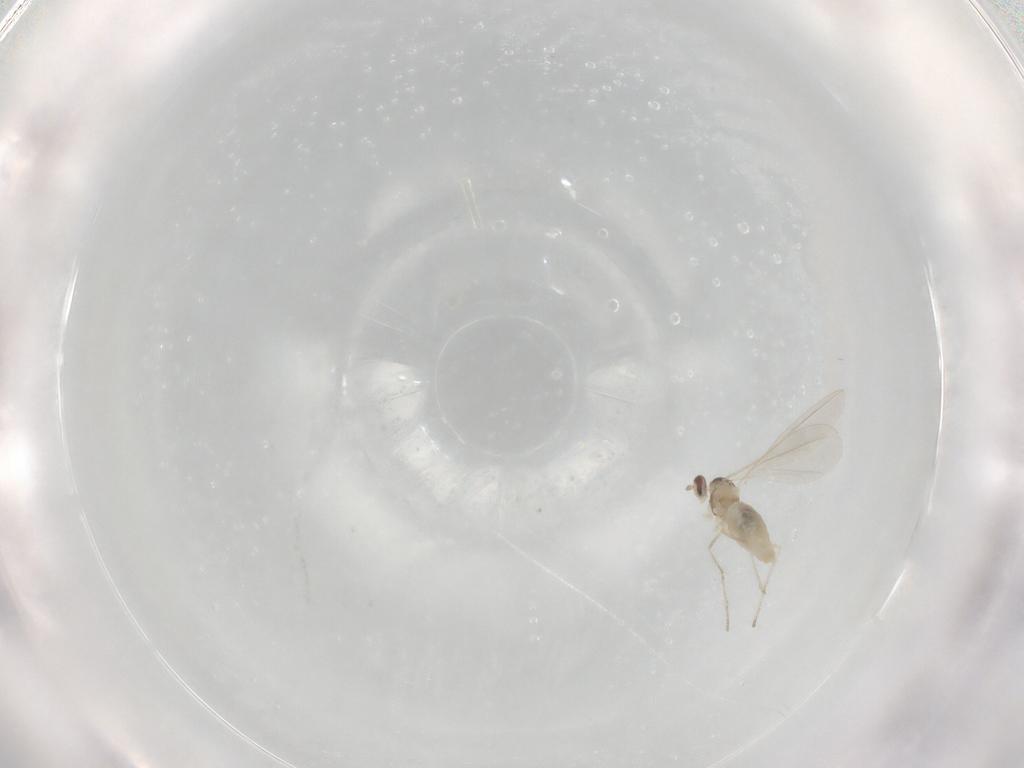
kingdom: Animalia
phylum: Arthropoda
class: Insecta
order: Diptera
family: Cecidomyiidae
